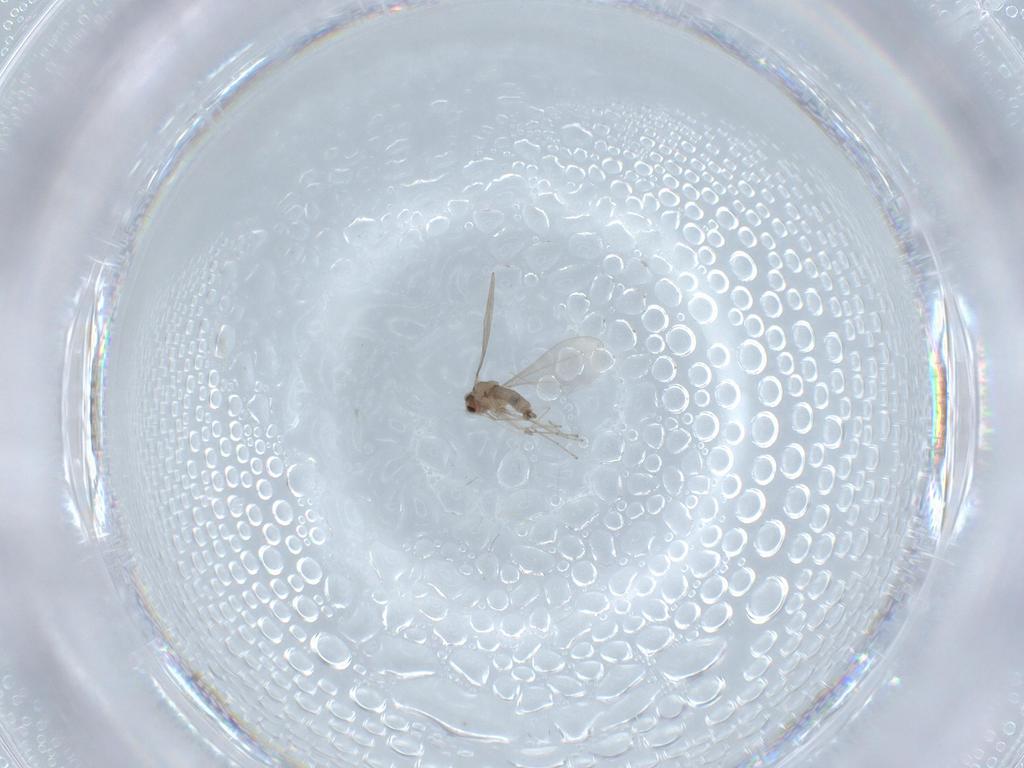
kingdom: Animalia
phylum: Arthropoda
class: Insecta
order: Diptera
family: Cecidomyiidae
